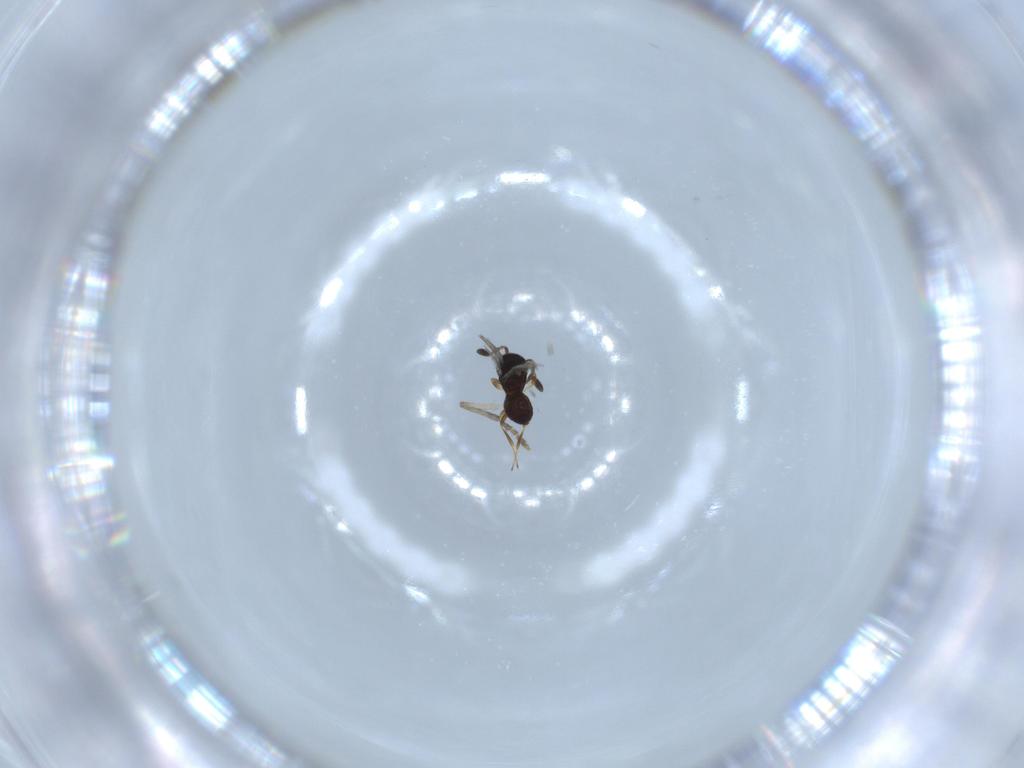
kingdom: Animalia
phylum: Arthropoda
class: Insecta
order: Hymenoptera
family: Scelionidae
